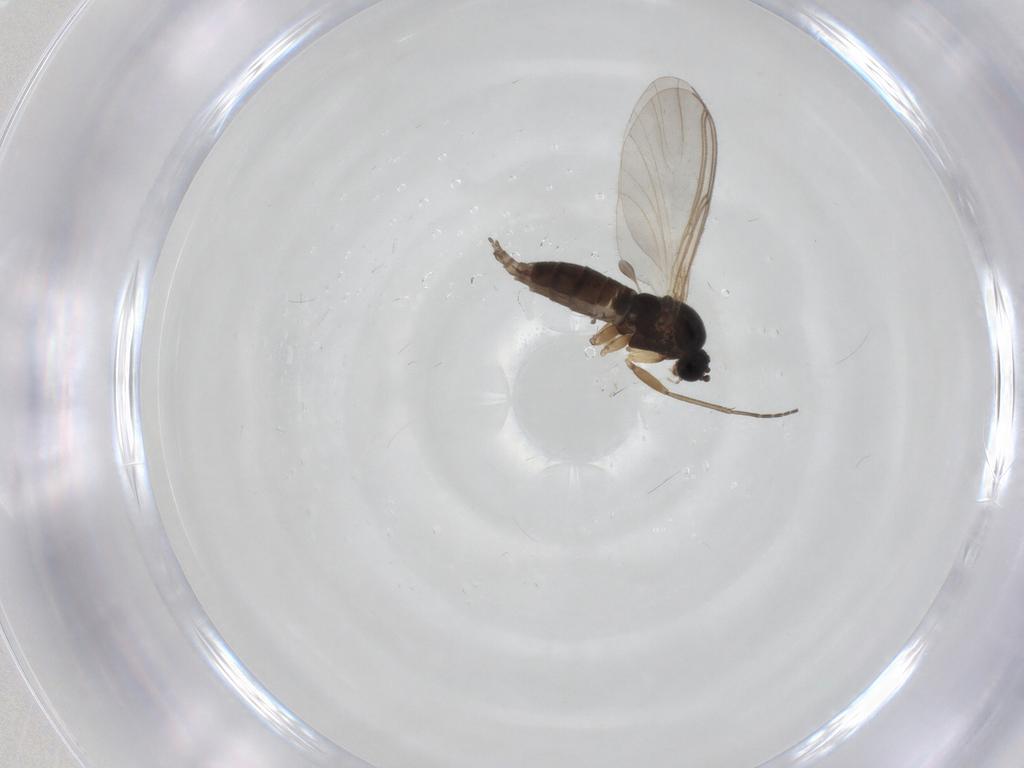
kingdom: Animalia
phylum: Arthropoda
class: Insecta
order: Diptera
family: Sciaridae
